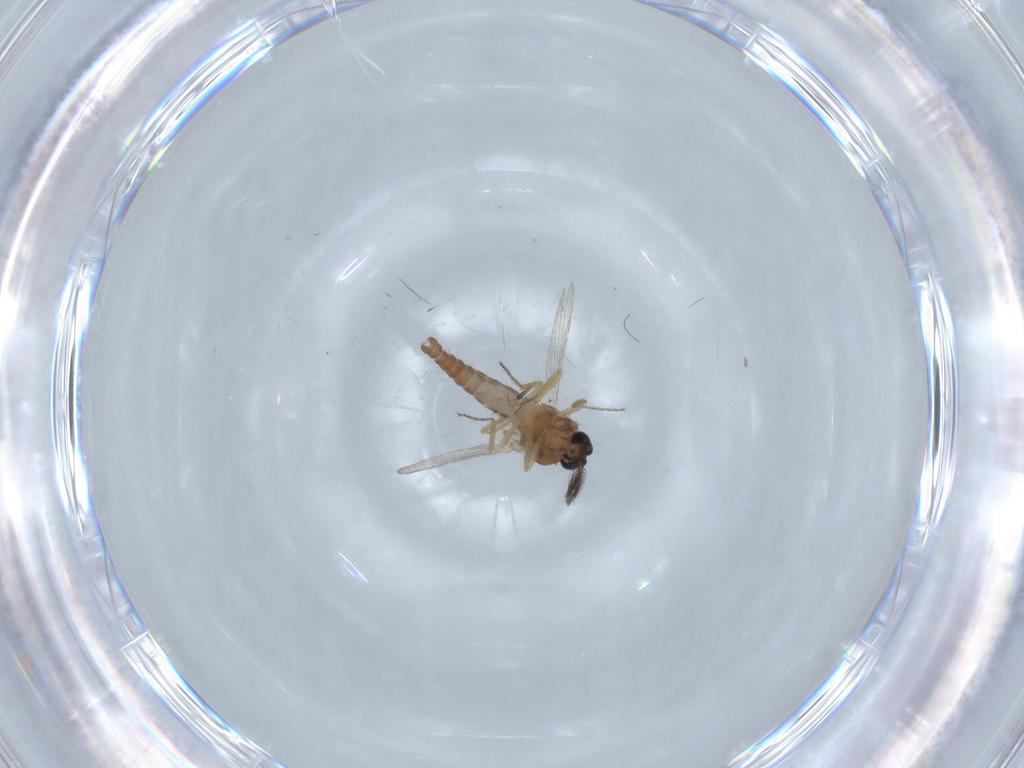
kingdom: Animalia
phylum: Arthropoda
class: Insecta
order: Diptera
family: Ceratopogonidae
